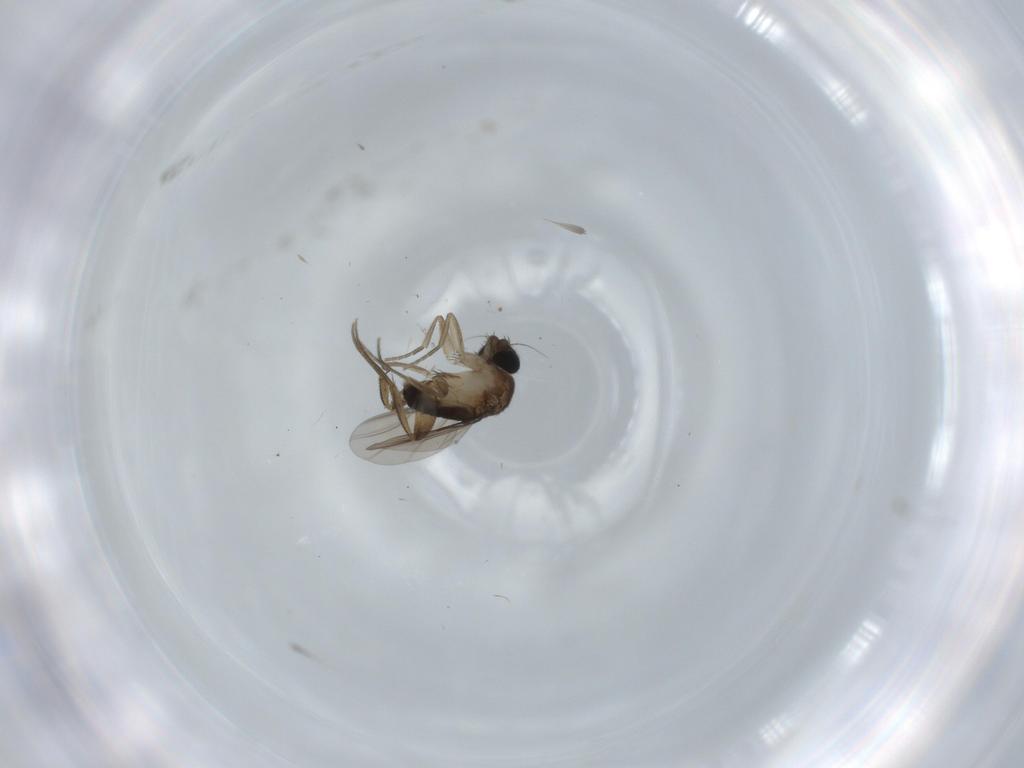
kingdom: Animalia
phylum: Arthropoda
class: Insecta
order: Diptera
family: Phoridae
